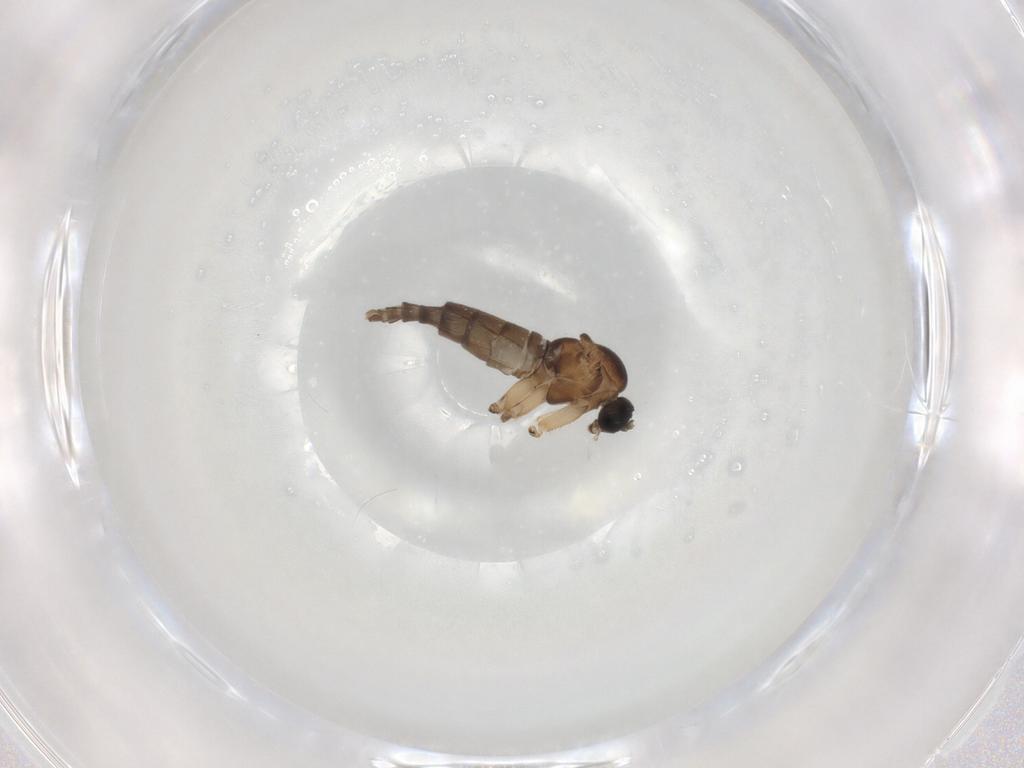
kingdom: Animalia
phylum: Arthropoda
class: Insecta
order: Diptera
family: Sciaridae
